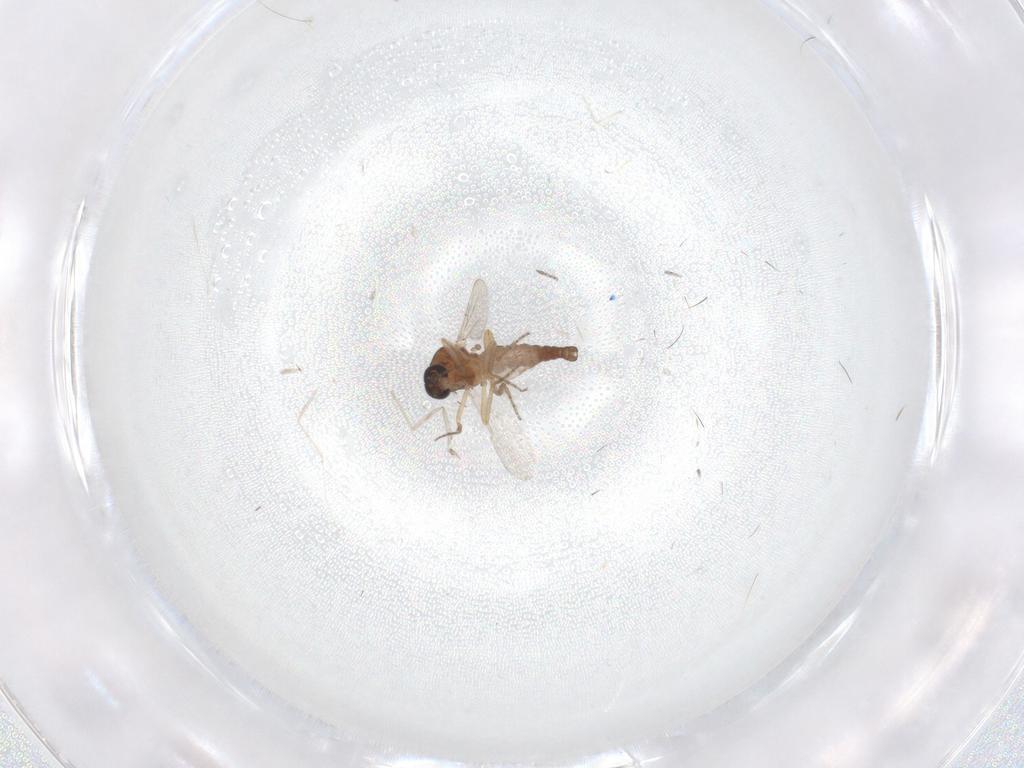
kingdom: Animalia
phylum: Arthropoda
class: Insecta
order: Diptera
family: Ceratopogonidae
